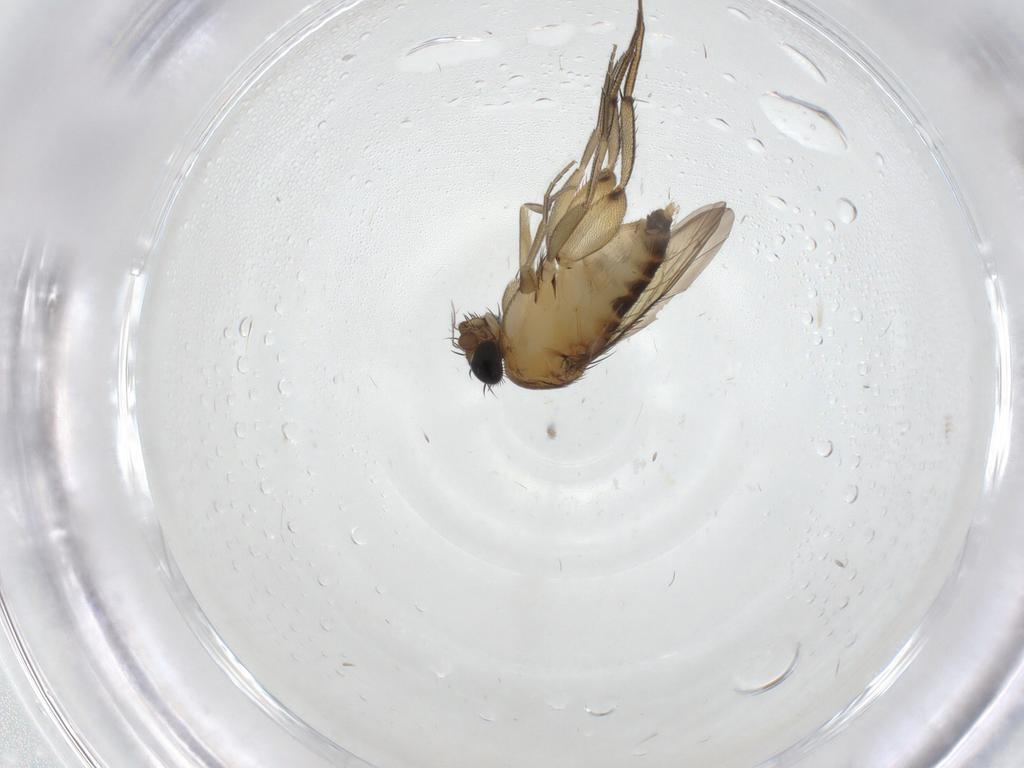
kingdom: Animalia
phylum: Arthropoda
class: Insecta
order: Diptera
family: Phoridae
